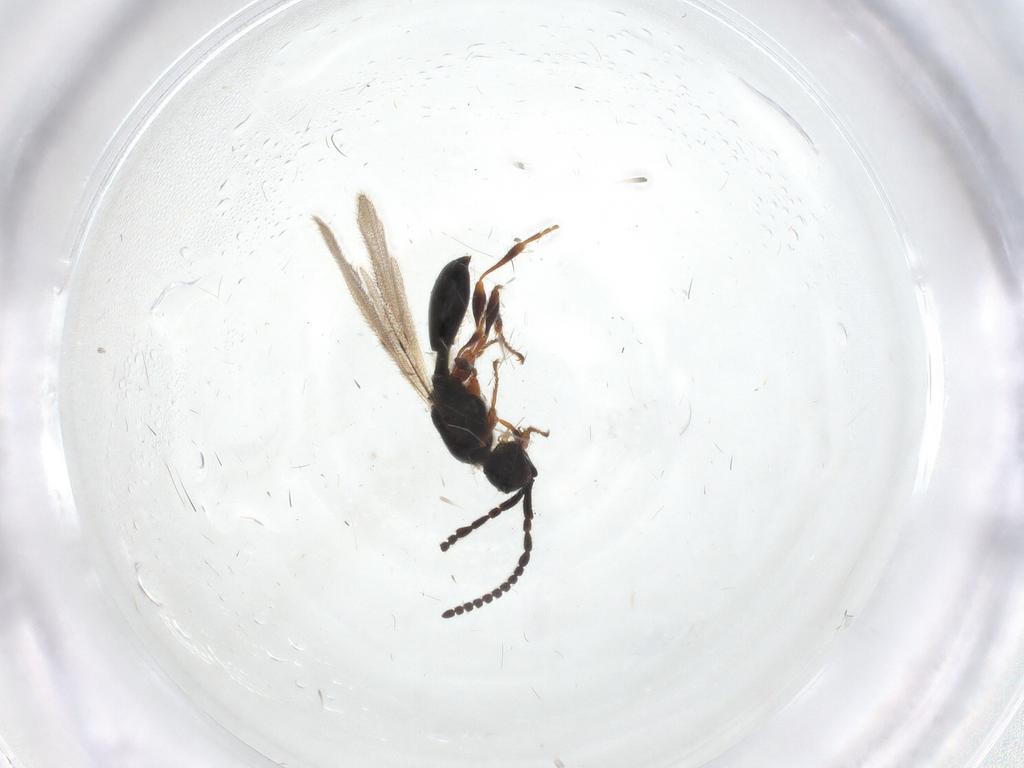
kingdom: Animalia
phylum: Arthropoda
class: Insecta
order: Hymenoptera
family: Diapriidae
